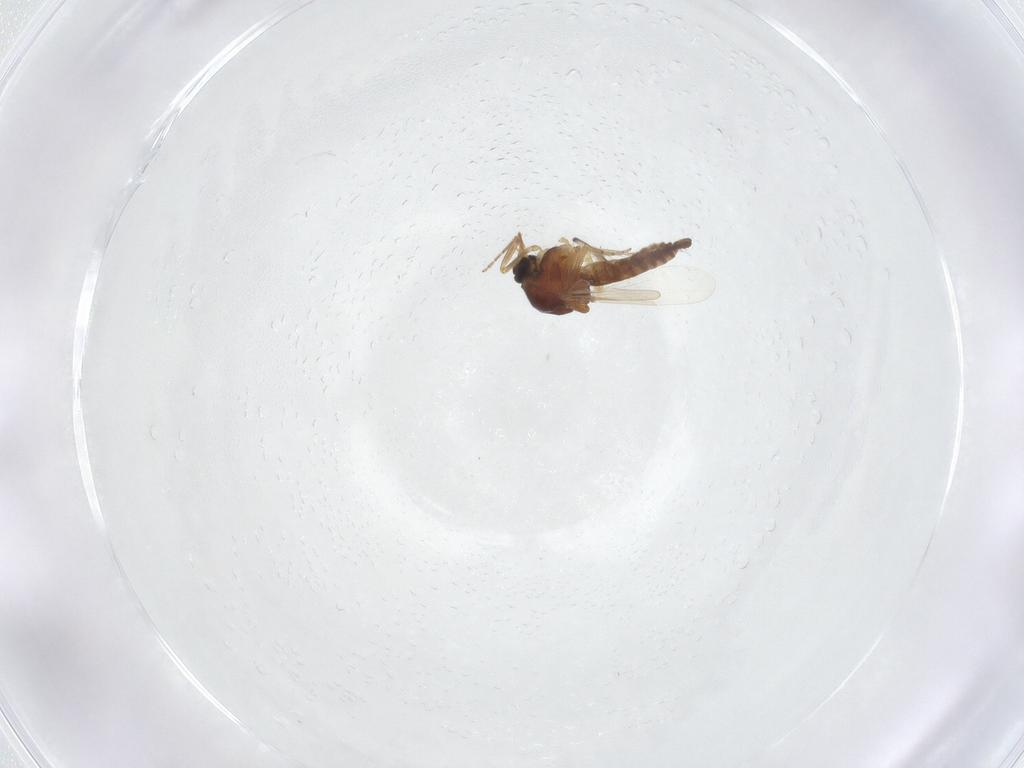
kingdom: Animalia
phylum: Arthropoda
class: Insecta
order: Diptera
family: Ceratopogonidae
